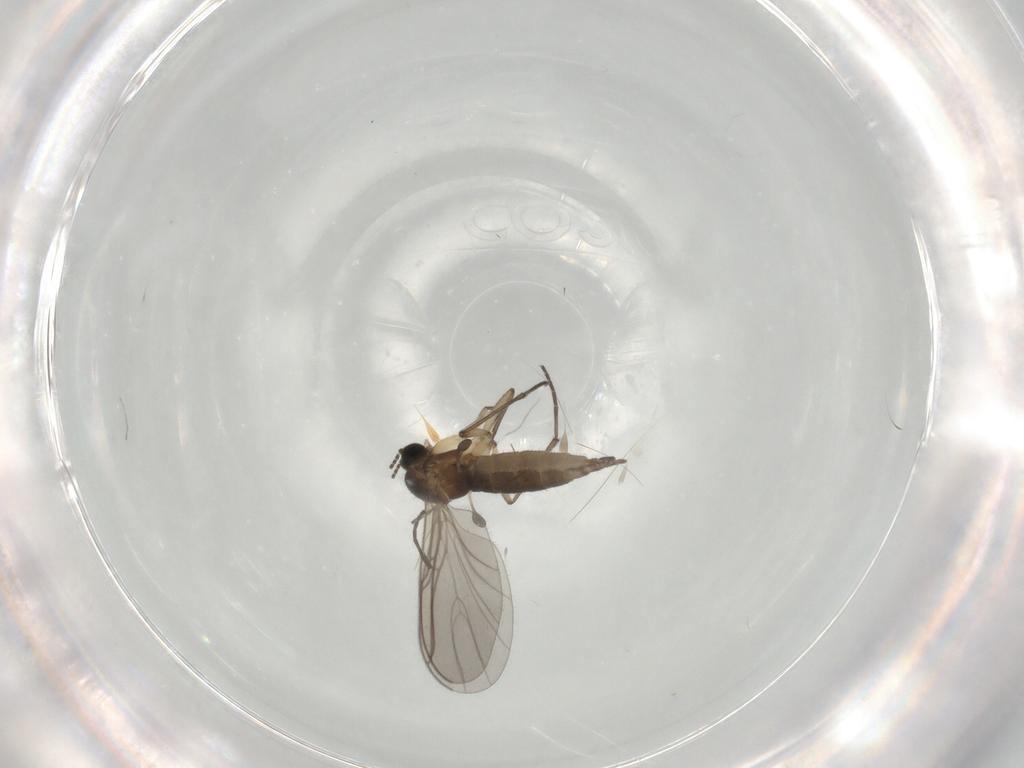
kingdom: Animalia
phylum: Arthropoda
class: Insecta
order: Diptera
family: Sciaridae
